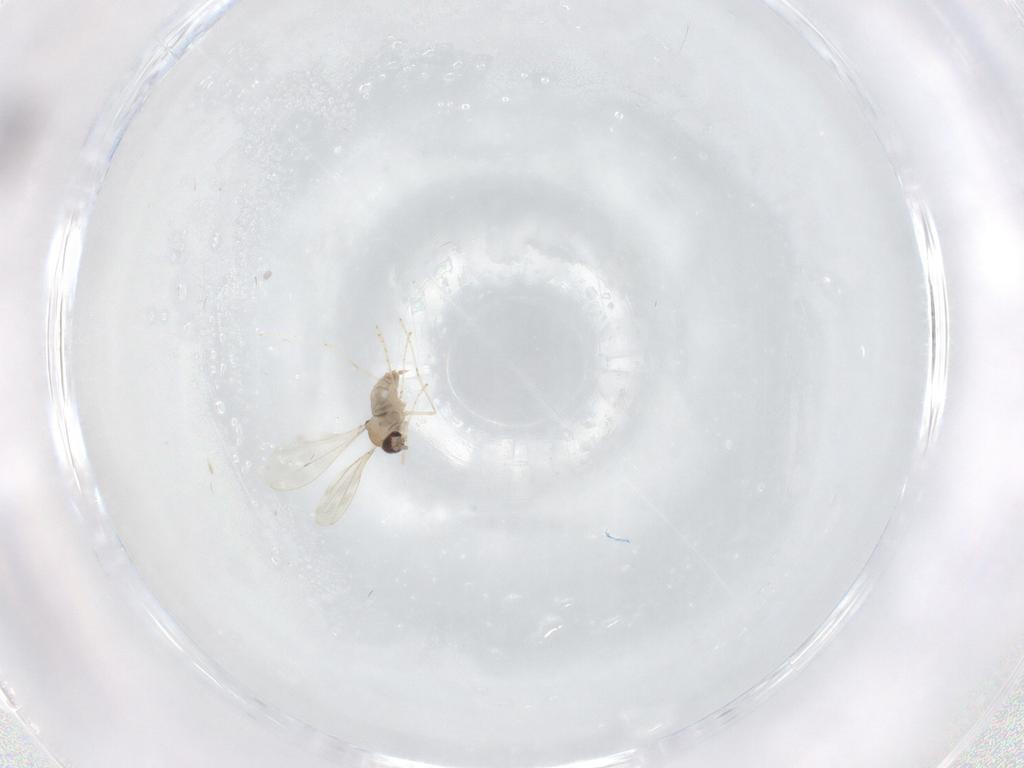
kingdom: Animalia
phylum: Arthropoda
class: Insecta
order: Diptera
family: Cecidomyiidae
